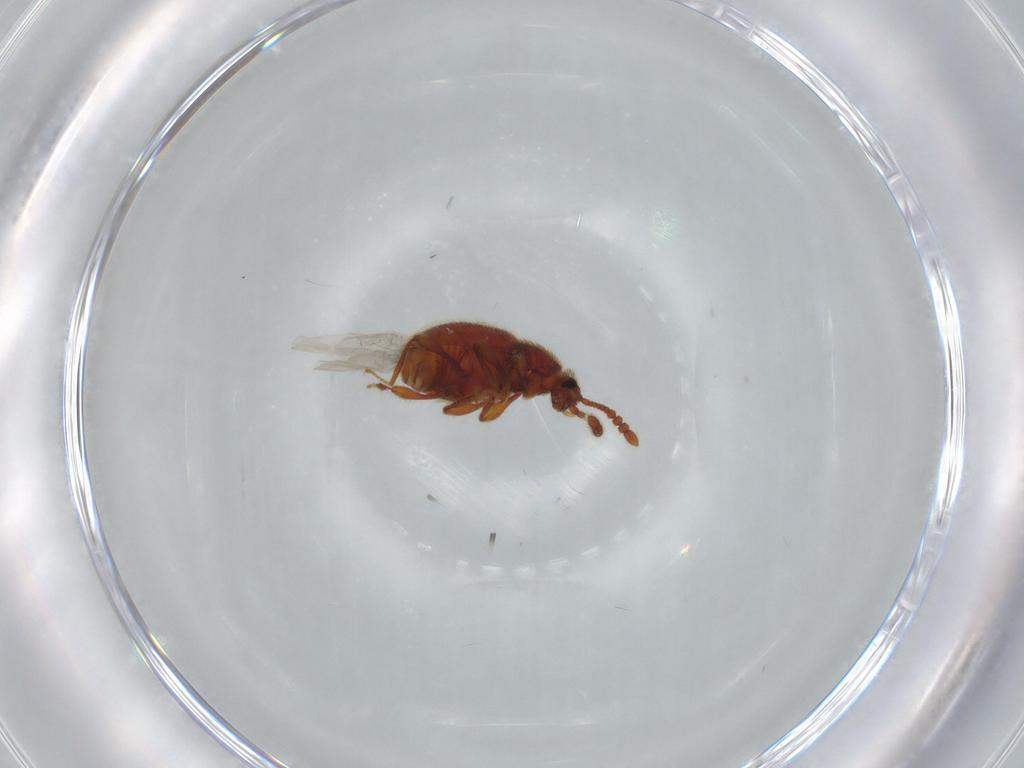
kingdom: Animalia
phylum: Arthropoda
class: Insecta
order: Coleoptera
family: Staphylinidae
